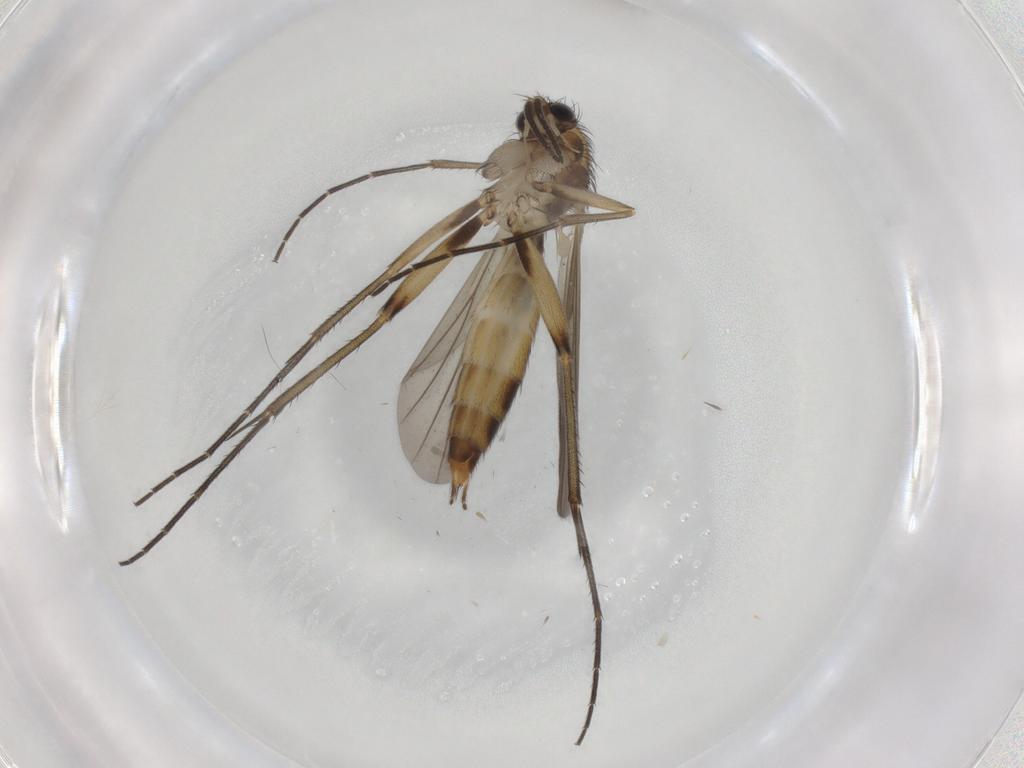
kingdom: Animalia
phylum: Arthropoda
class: Insecta
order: Diptera
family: Mycetophilidae
